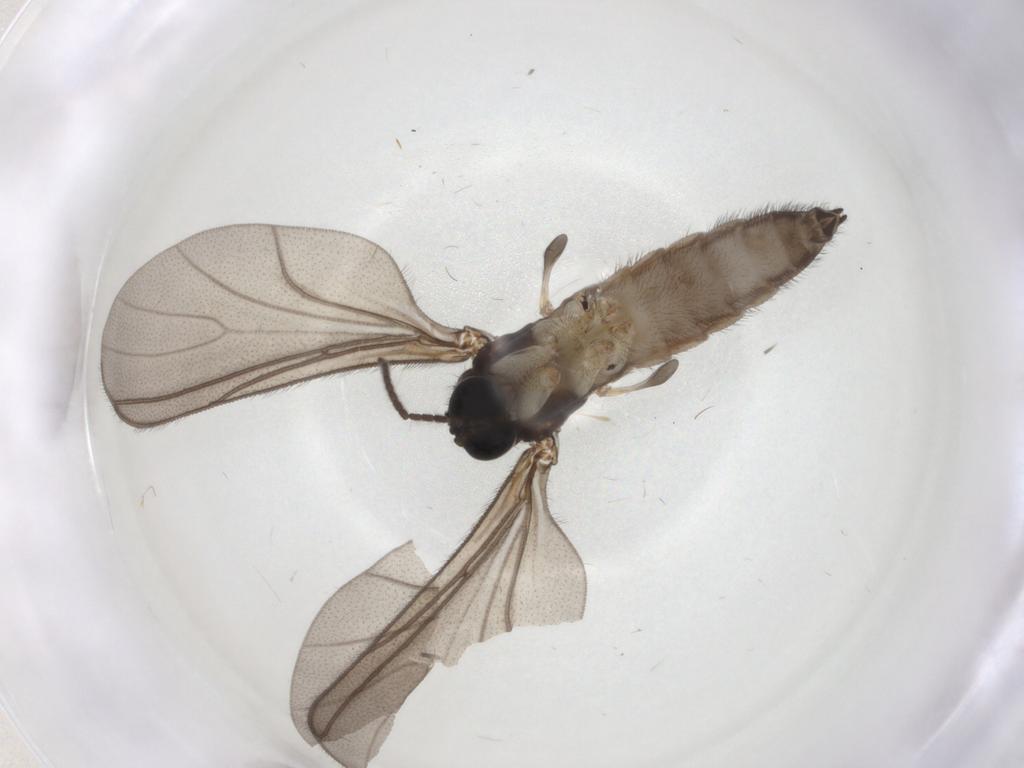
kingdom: Animalia
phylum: Arthropoda
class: Insecta
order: Diptera
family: Sciaridae
